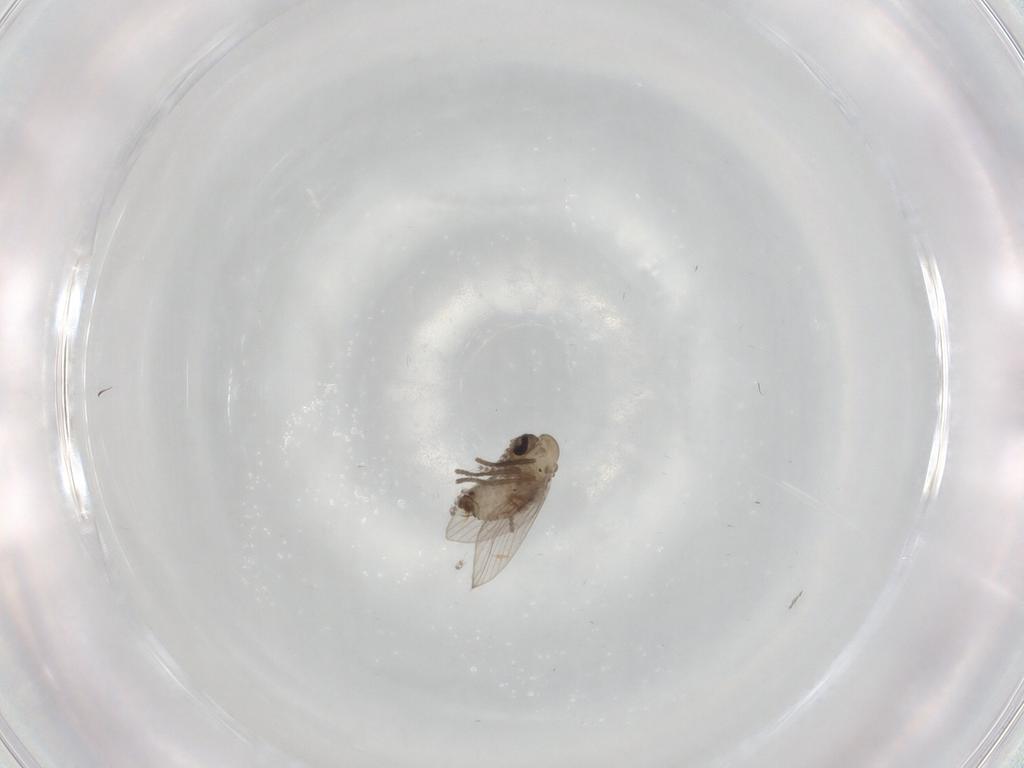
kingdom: Animalia
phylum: Arthropoda
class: Insecta
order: Diptera
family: Psychodidae
